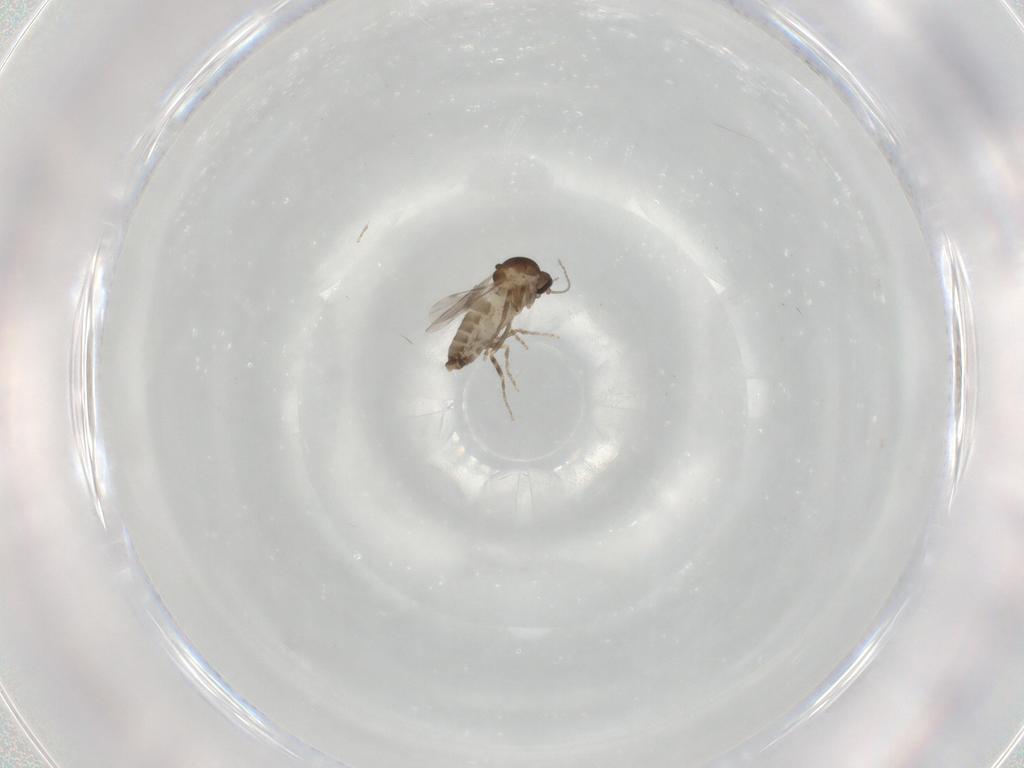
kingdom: Animalia
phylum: Arthropoda
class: Insecta
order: Diptera
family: Ceratopogonidae
